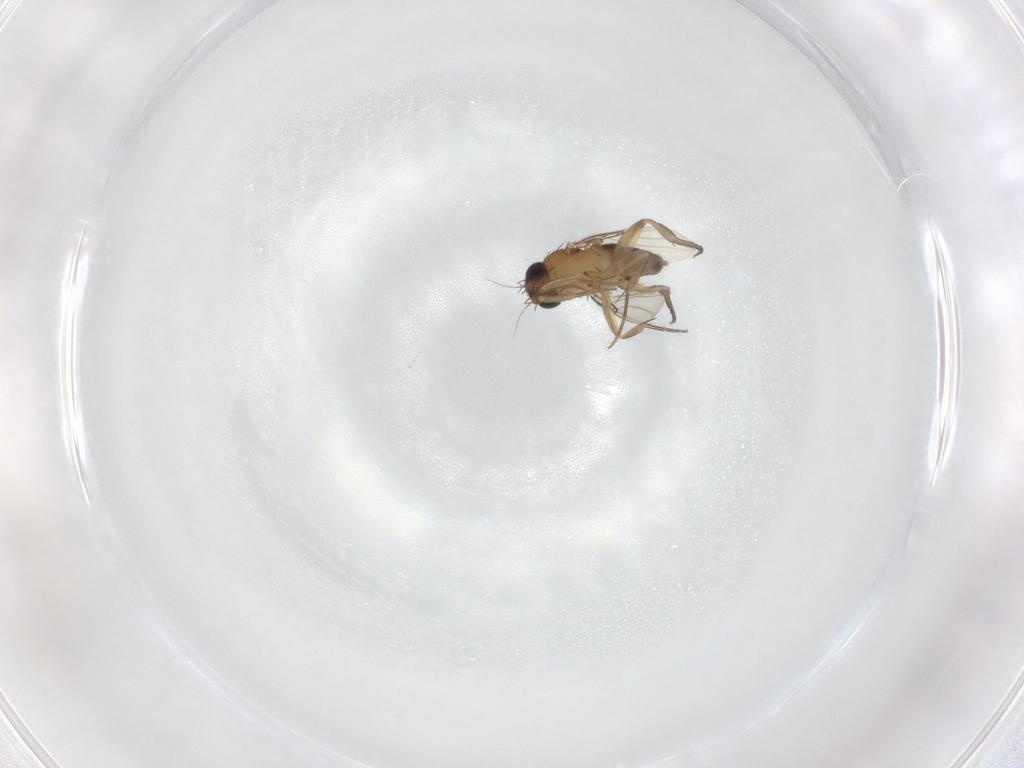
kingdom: Animalia
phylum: Arthropoda
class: Insecta
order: Diptera
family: Phoridae
